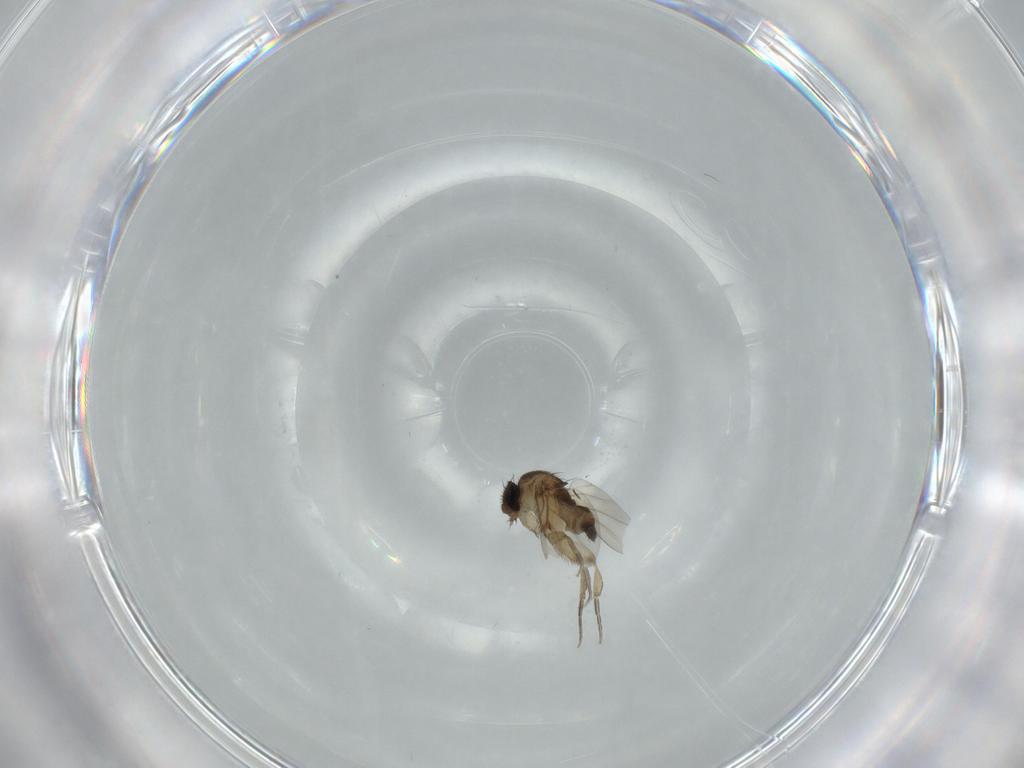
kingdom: Animalia
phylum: Arthropoda
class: Insecta
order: Diptera
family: Phoridae
